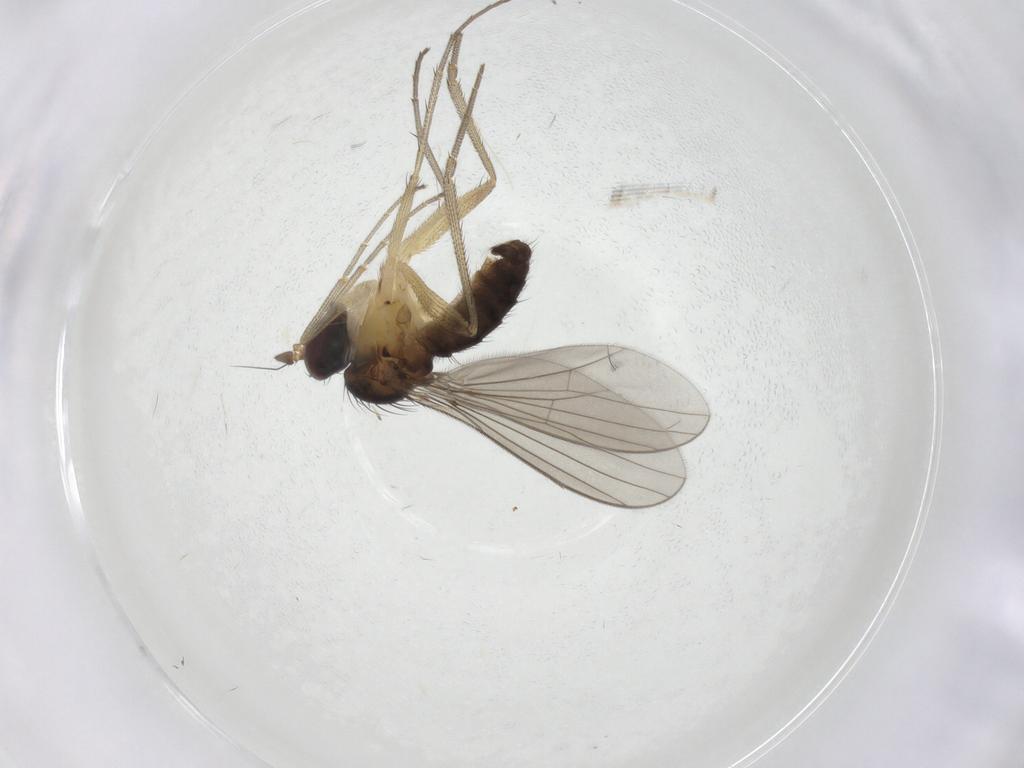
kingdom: Animalia
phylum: Arthropoda
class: Insecta
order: Diptera
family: Dolichopodidae
